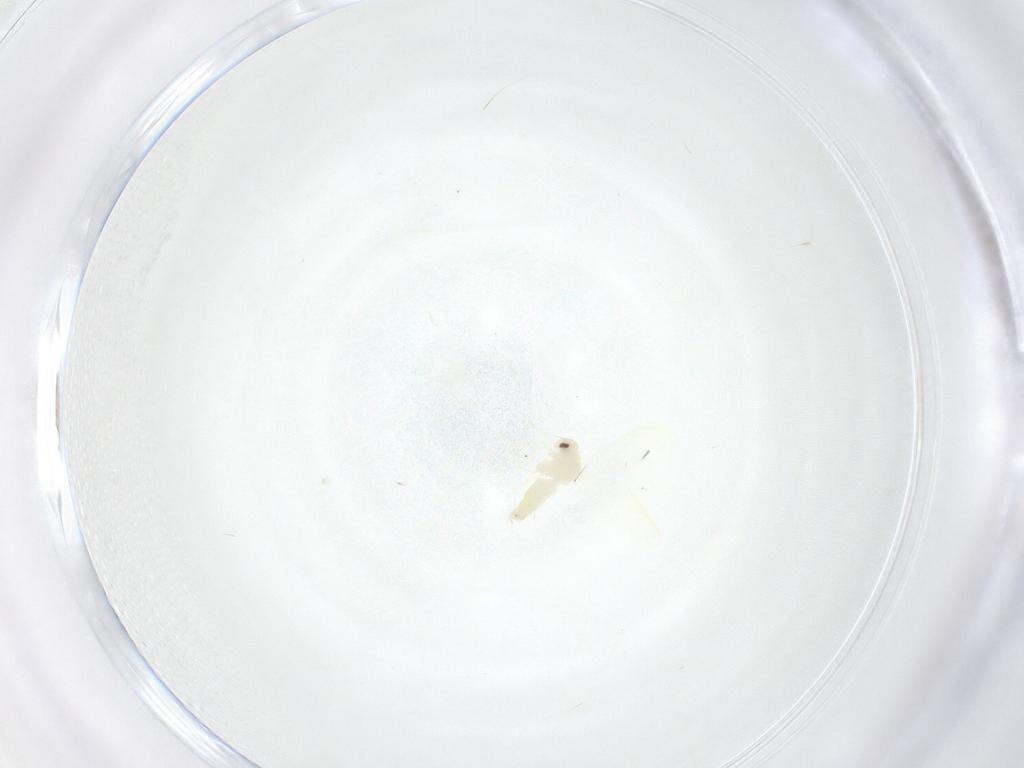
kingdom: Animalia
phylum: Arthropoda
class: Insecta
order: Hemiptera
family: Aleyrodidae
